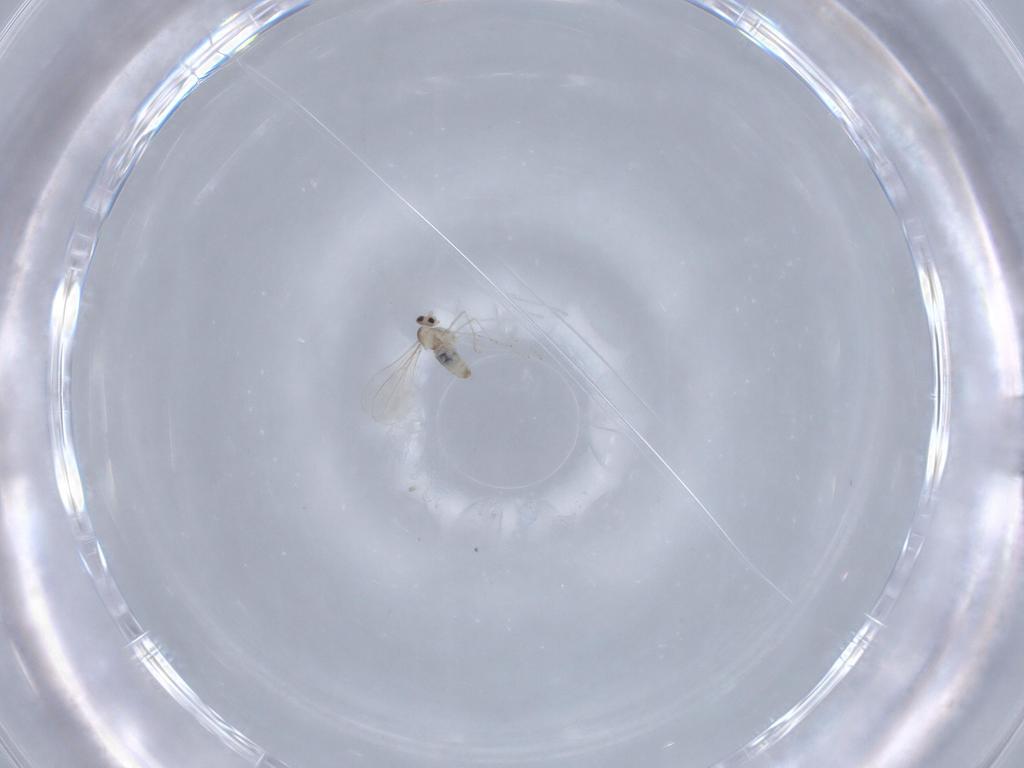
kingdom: Animalia
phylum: Arthropoda
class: Insecta
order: Diptera
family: Cecidomyiidae
